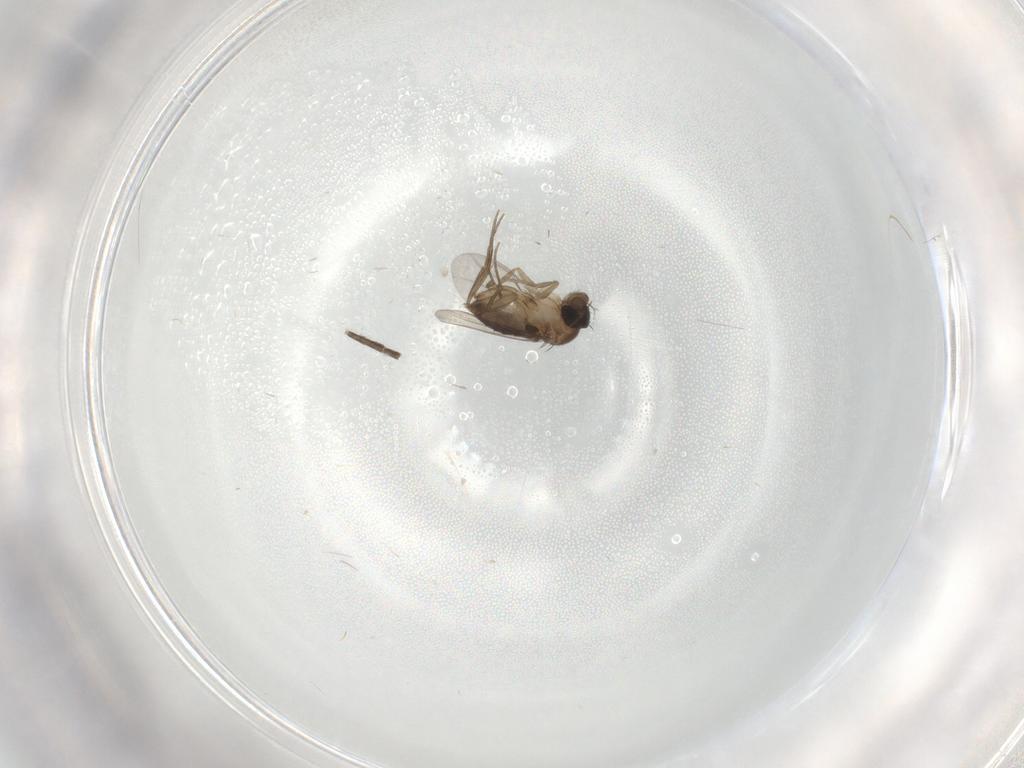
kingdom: Animalia
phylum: Arthropoda
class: Insecta
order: Diptera
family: Phoridae
